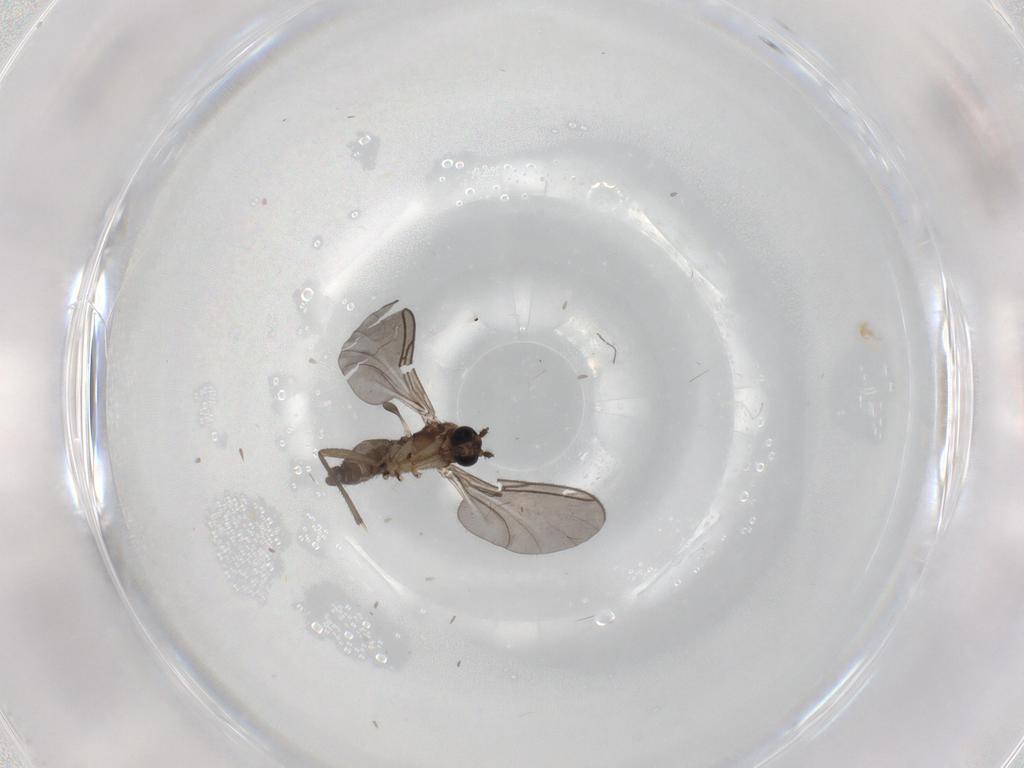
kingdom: Animalia
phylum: Arthropoda
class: Insecta
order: Diptera
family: Sciaridae
